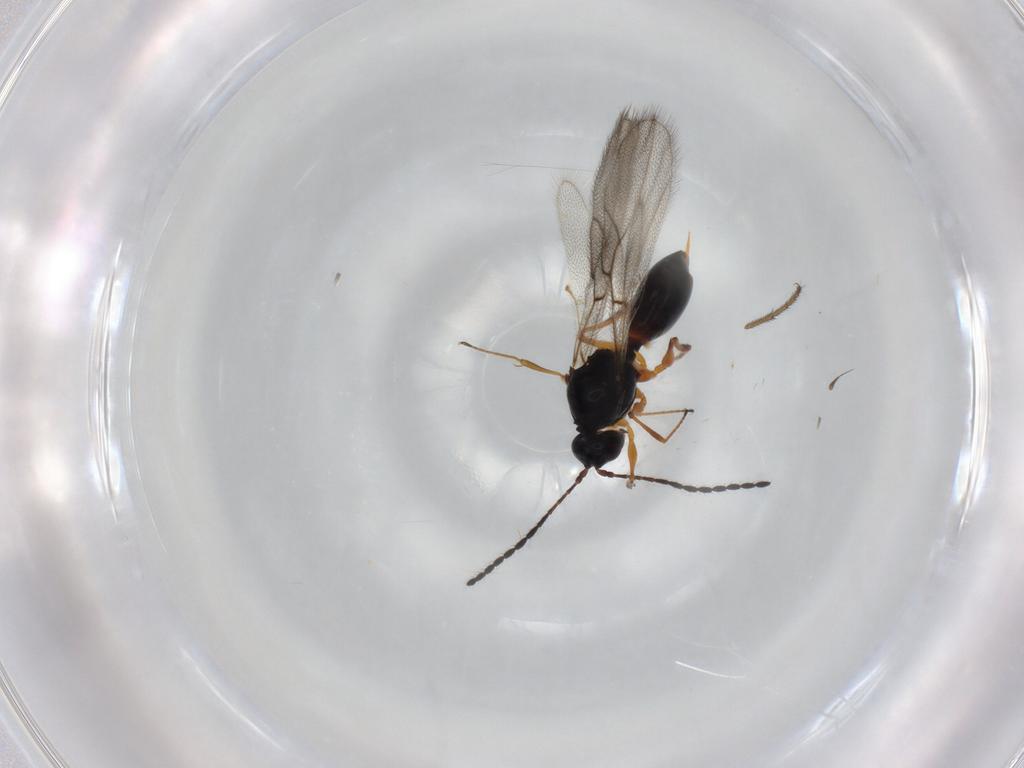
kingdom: Animalia
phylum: Arthropoda
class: Insecta
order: Hymenoptera
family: Figitidae
